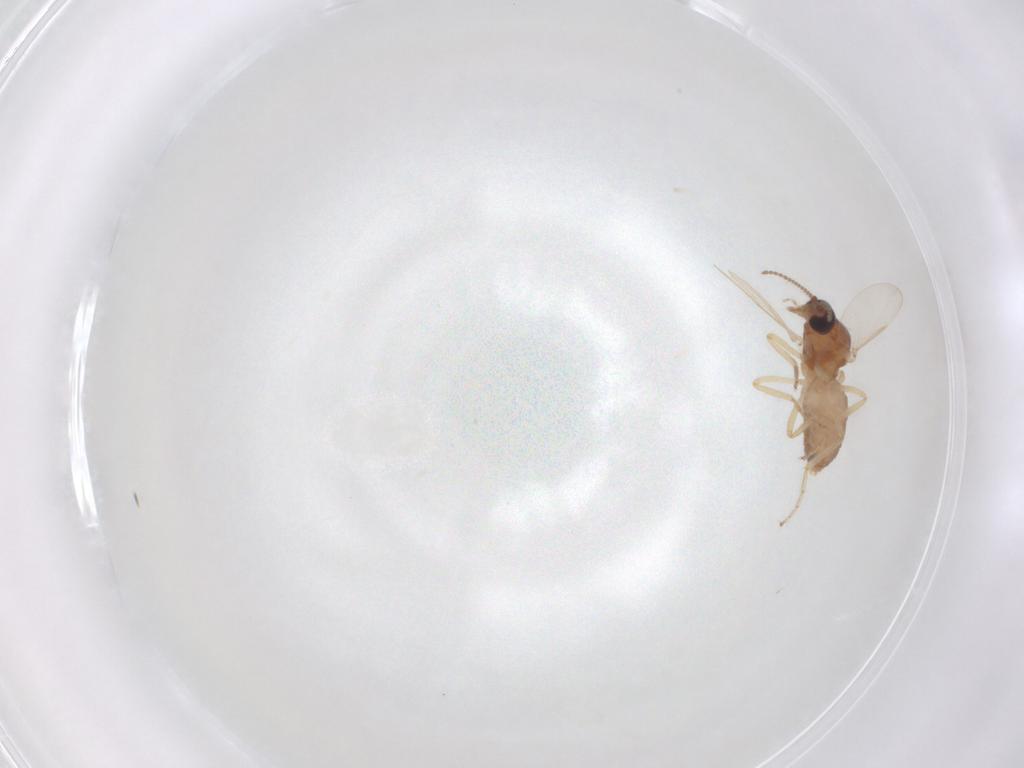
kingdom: Animalia
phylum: Arthropoda
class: Insecta
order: Diptera
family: Ceratopogonidae
